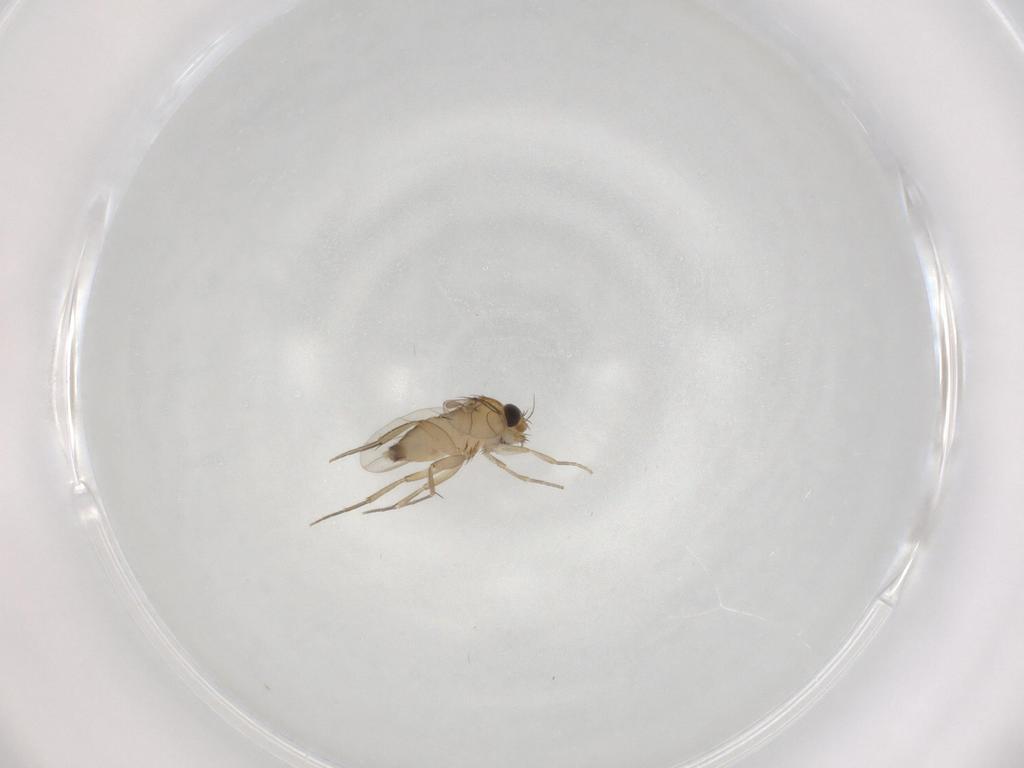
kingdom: Animalia
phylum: Arthropoda
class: Insecta
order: Diptera
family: Phoridae
